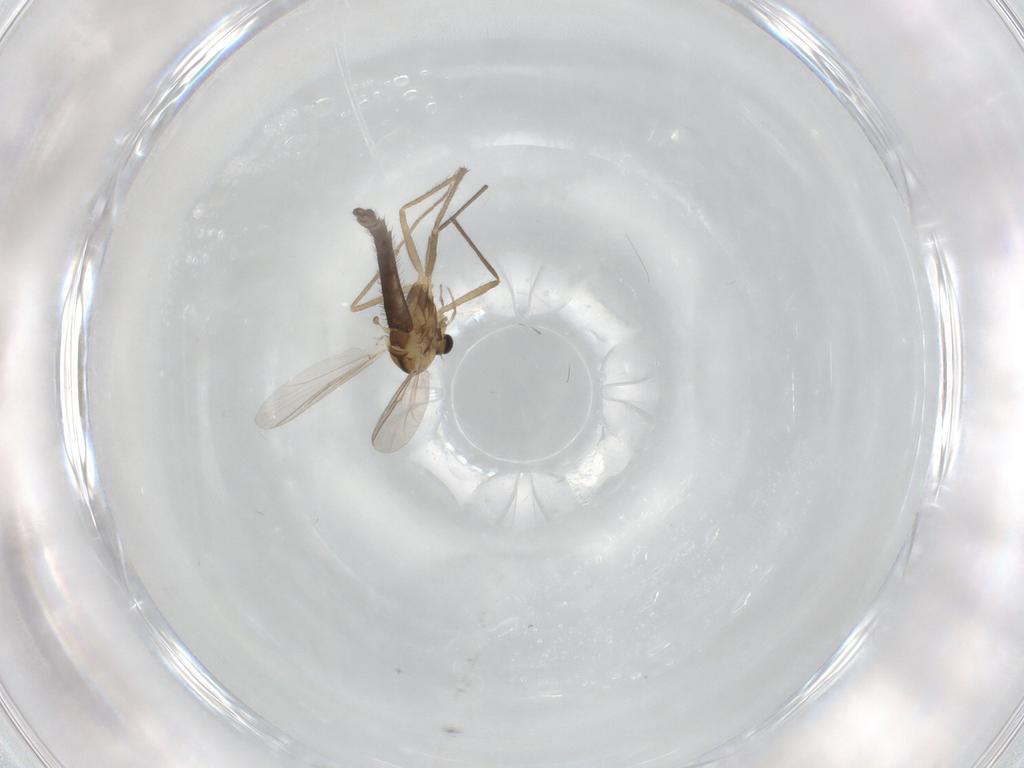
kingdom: Animalia
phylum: Arthropoda
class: Insecta
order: Diptera
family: Chironomidae
